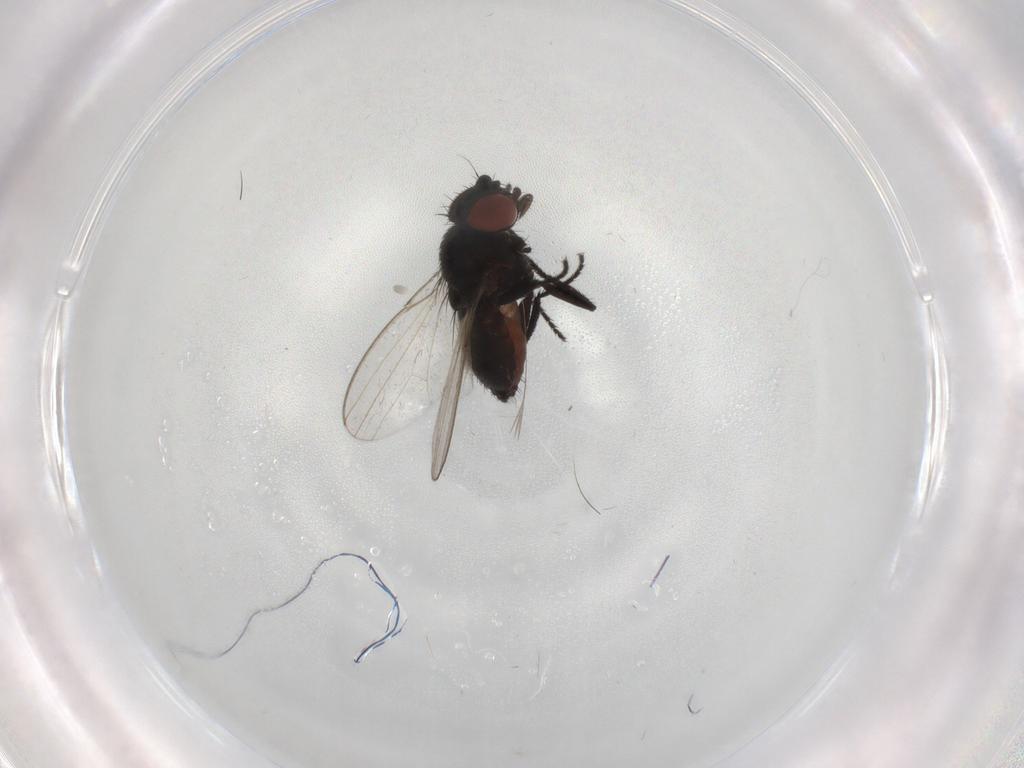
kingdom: Animalia
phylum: Arthropoda
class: Insecta
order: Diptera
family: Milichiidae
